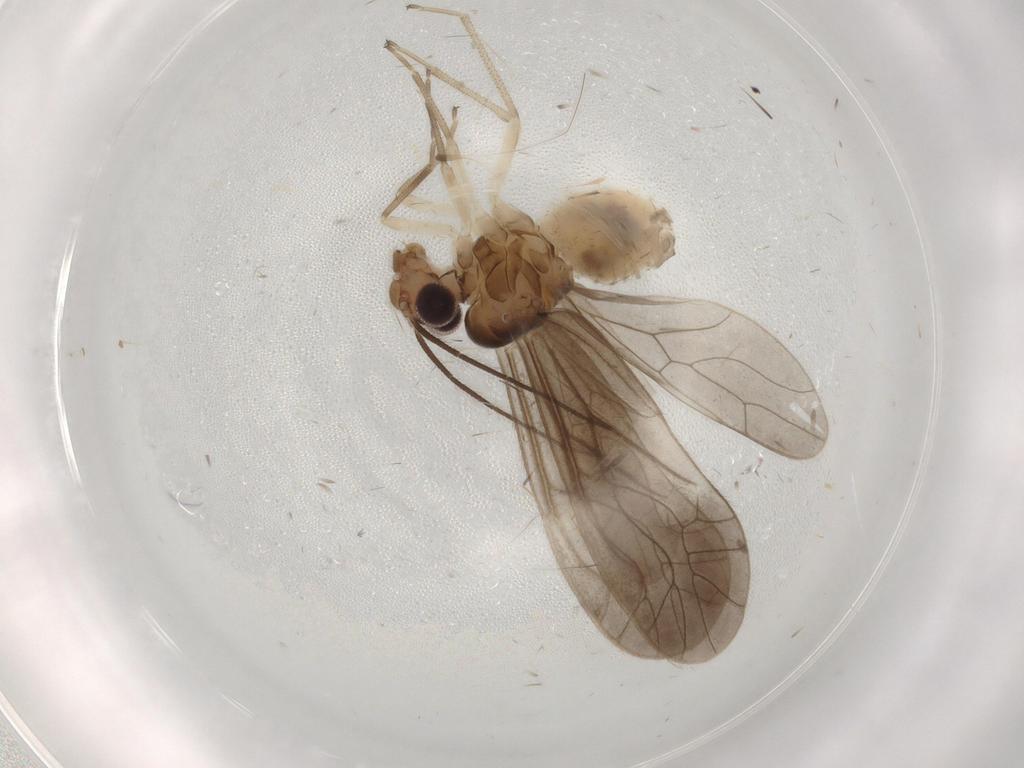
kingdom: Animalia
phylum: Arthropoda
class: Insecta
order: Psocodea
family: Caeciliusidae
